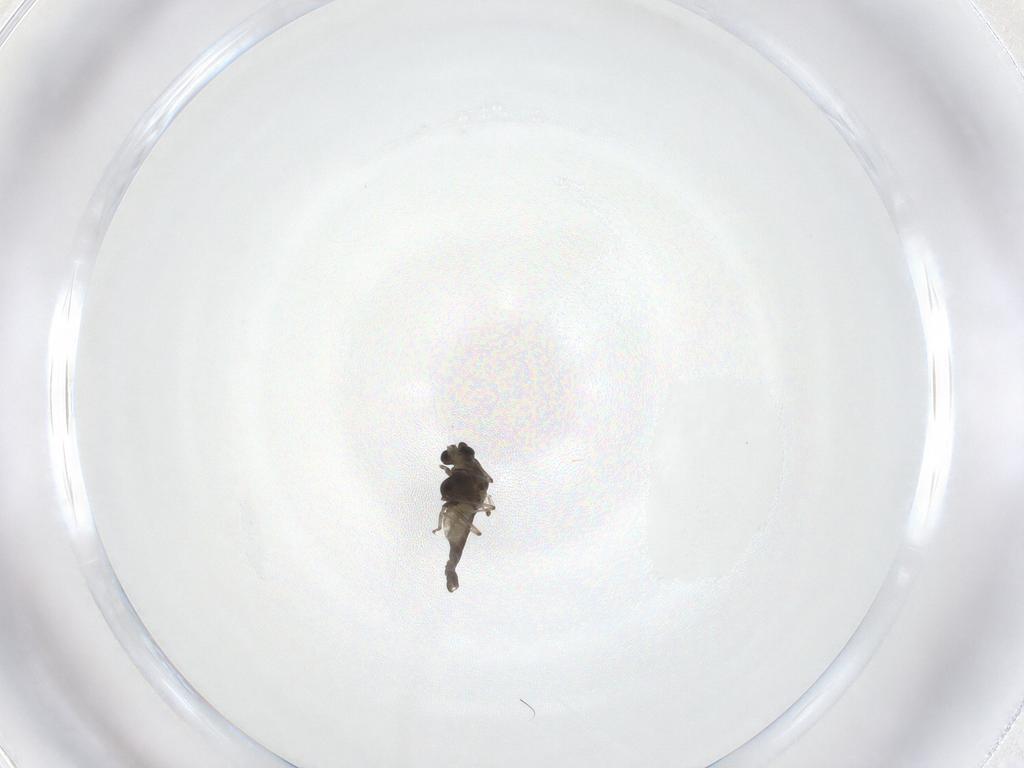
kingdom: Animalia
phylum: Arthropoda
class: Insecta
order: Diptera
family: Chironomidae
